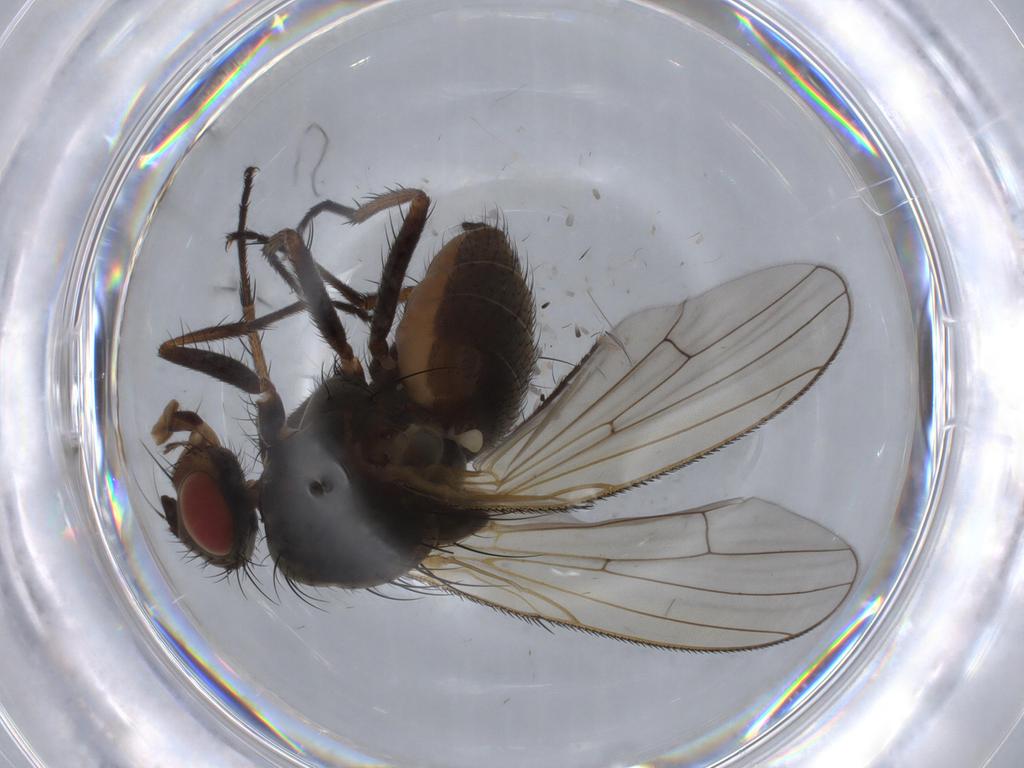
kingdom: Animalia
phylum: Arthropoda
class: Insecta
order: Diptera
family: Anthomyiidae
